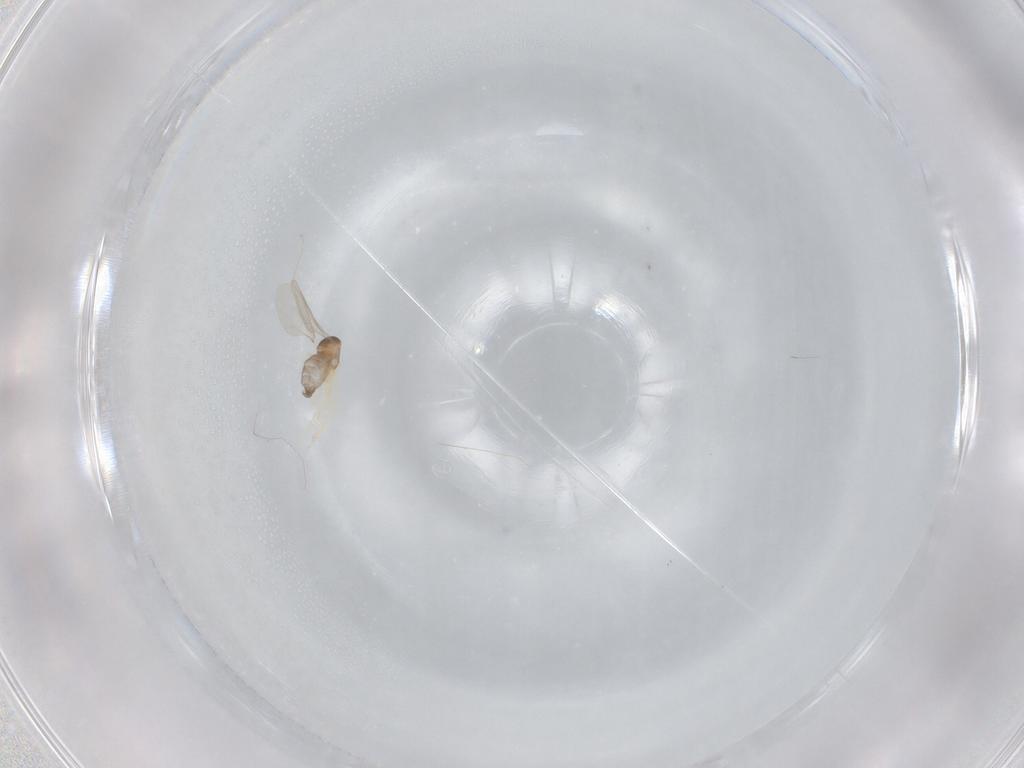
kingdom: Animalia
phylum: Arthropoda
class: Insecta
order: Diptera
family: Cecidomyiidae
